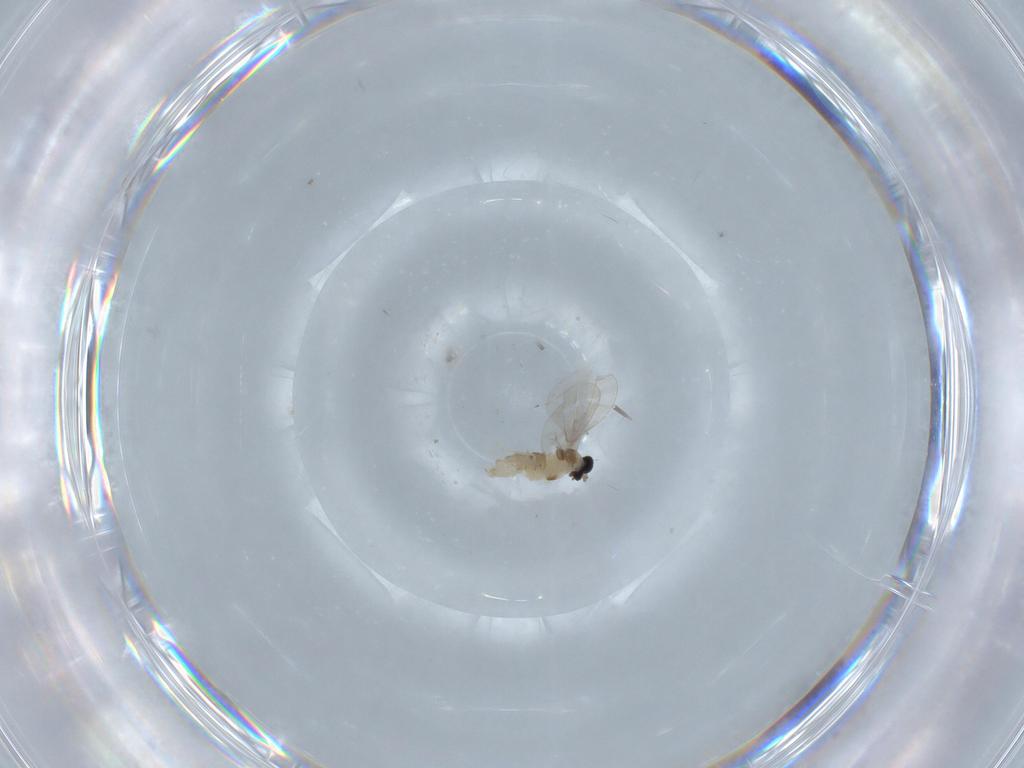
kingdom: Animalia
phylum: Arthropoda
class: Insecta
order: Diptera
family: Cecidomyiidae
